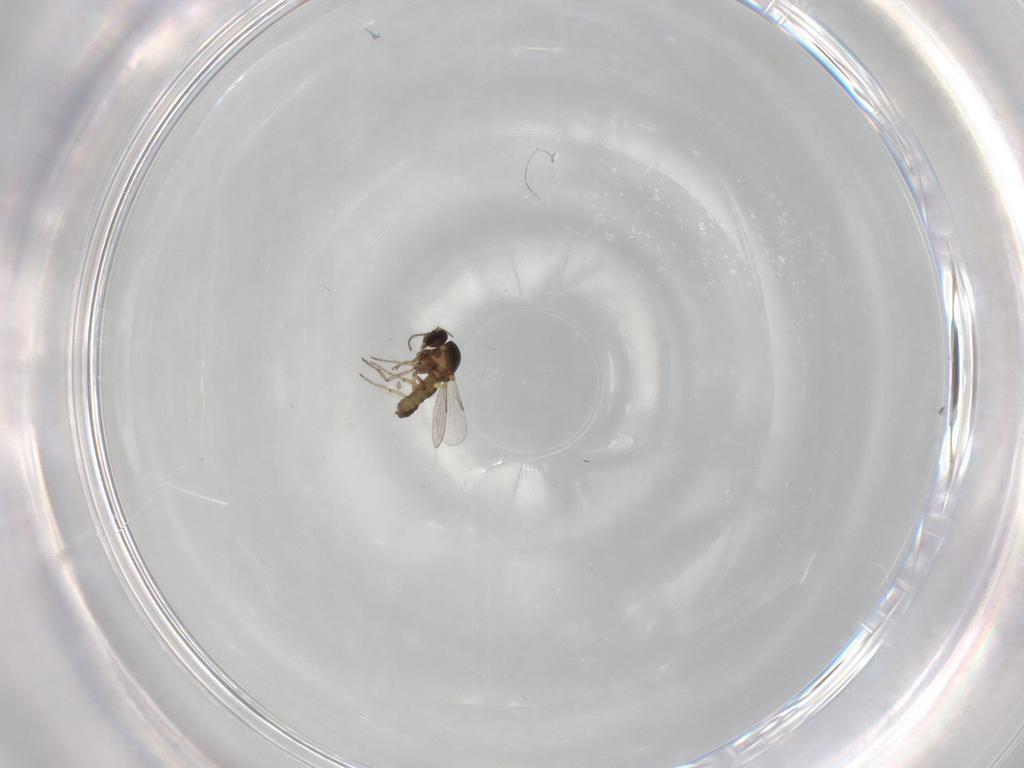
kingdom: Animalia
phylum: Arthropoda
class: Insecta
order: Diptera
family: Ceratopogonidae
